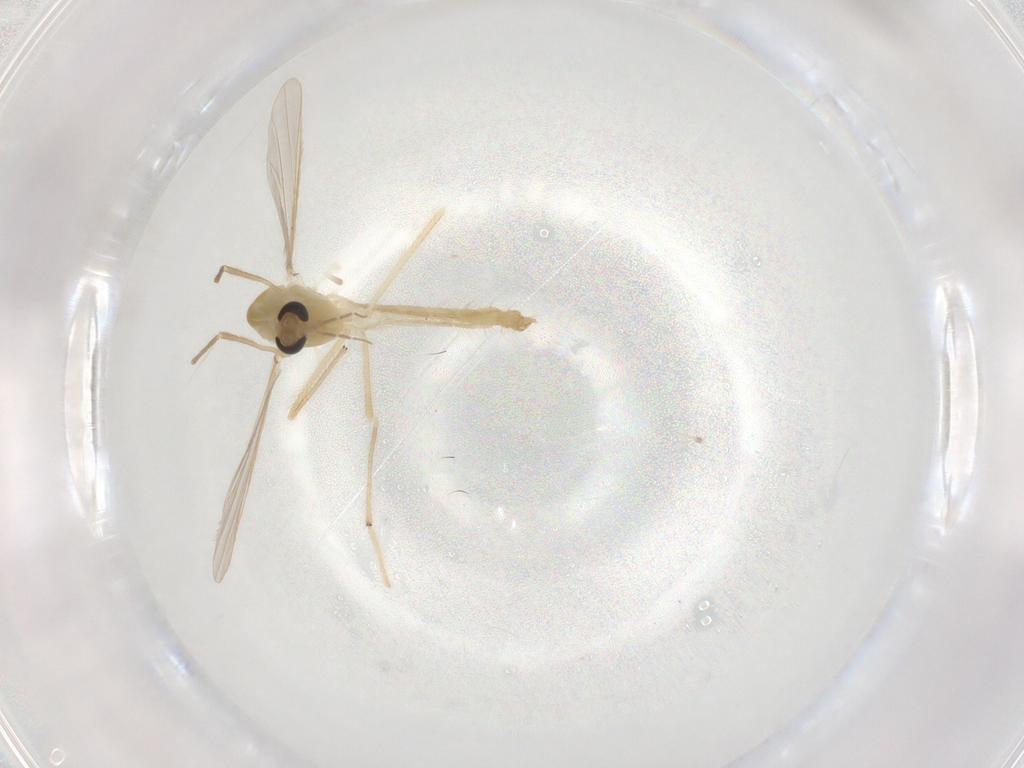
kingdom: Animalia
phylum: Arthropoda
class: Insecta
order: Diptera
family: Chironomidae
